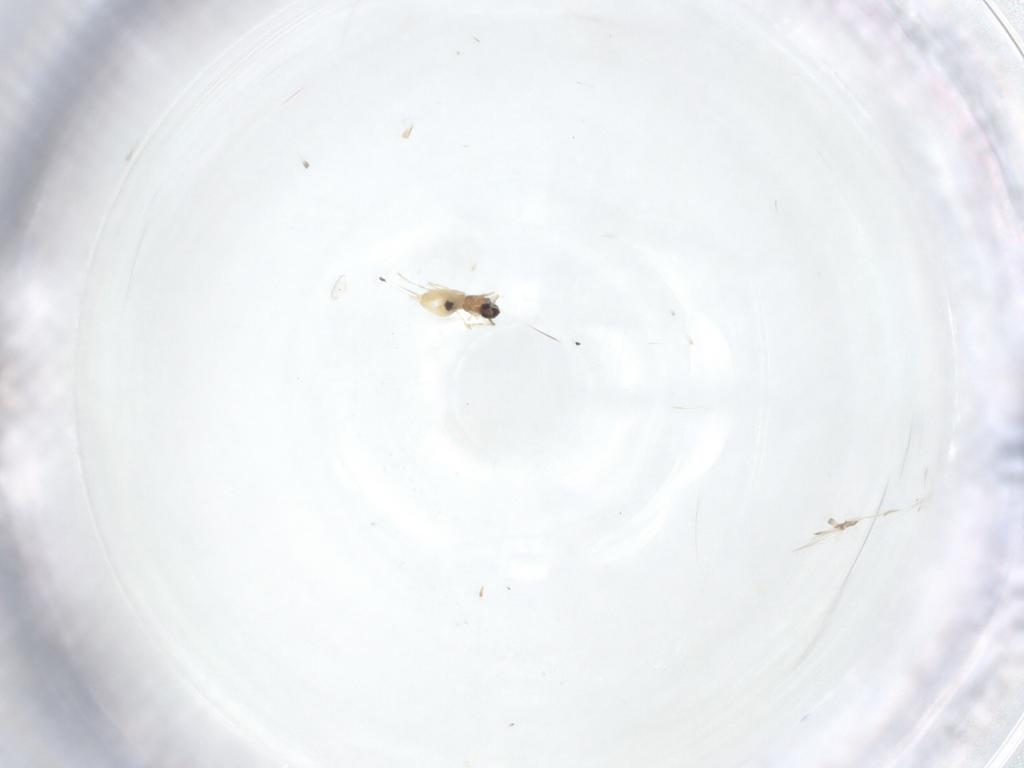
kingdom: Animalia
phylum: Arthropoda
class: Insecta
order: Diptera
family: Cecidomyiidae
